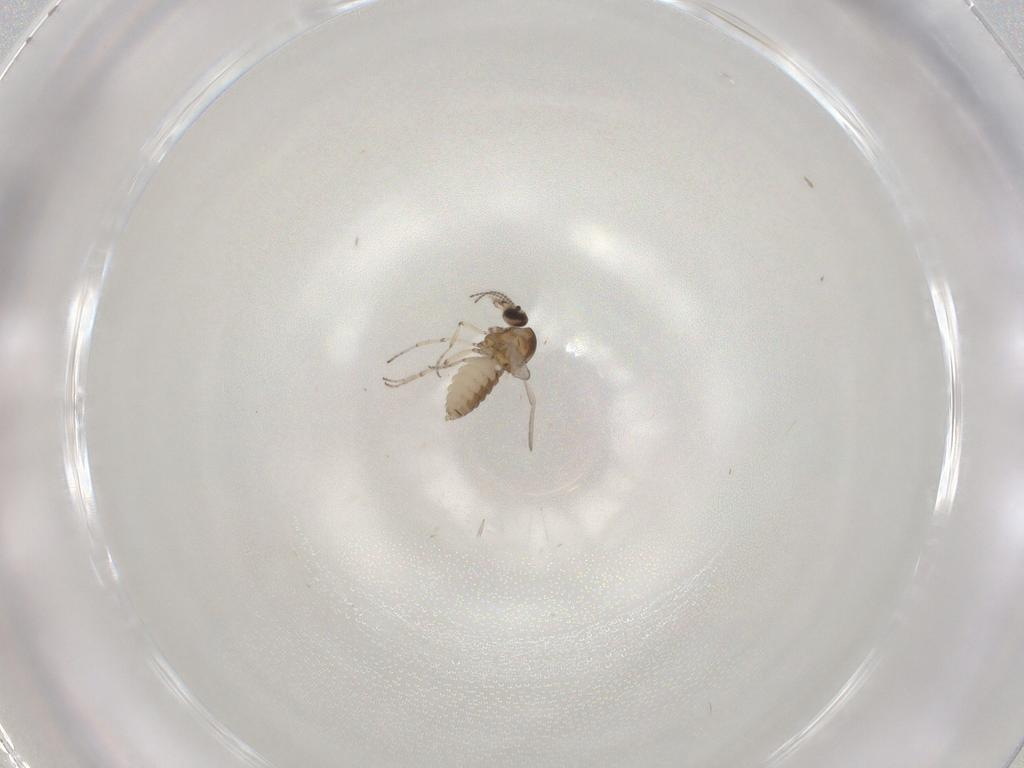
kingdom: Animalia
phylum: Arthropoda
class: Insecta
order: Diptera
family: Ceratopogonidae
